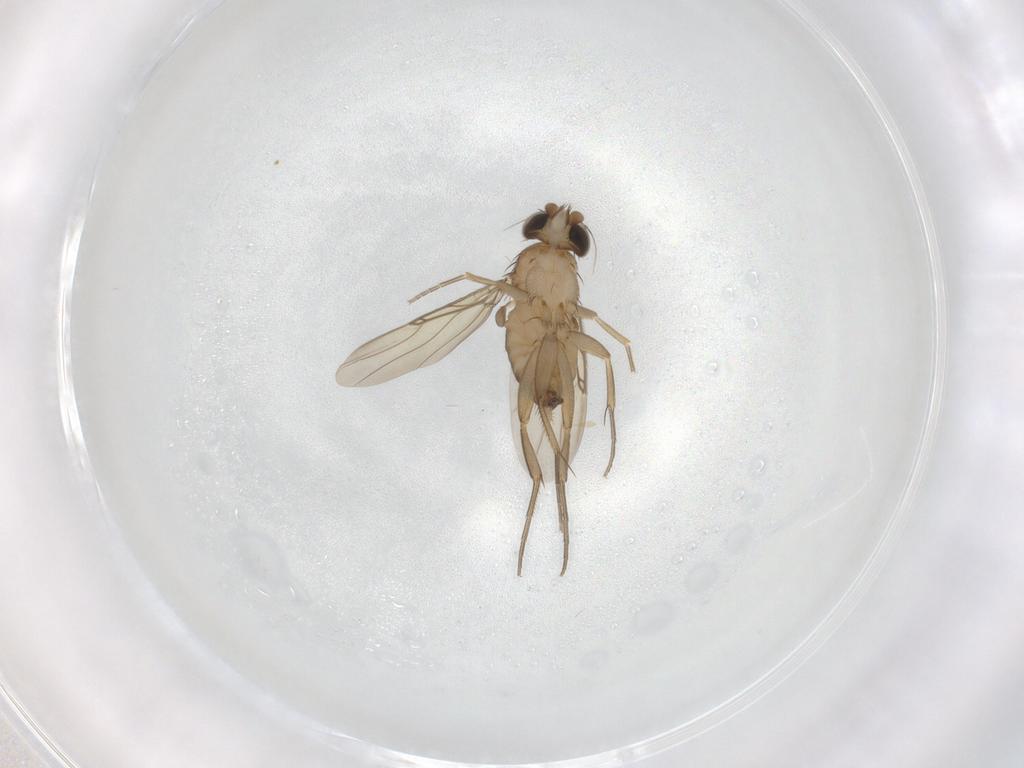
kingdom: Animalia
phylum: Arthropoda
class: Insecta
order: Diptera
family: Phoridae
